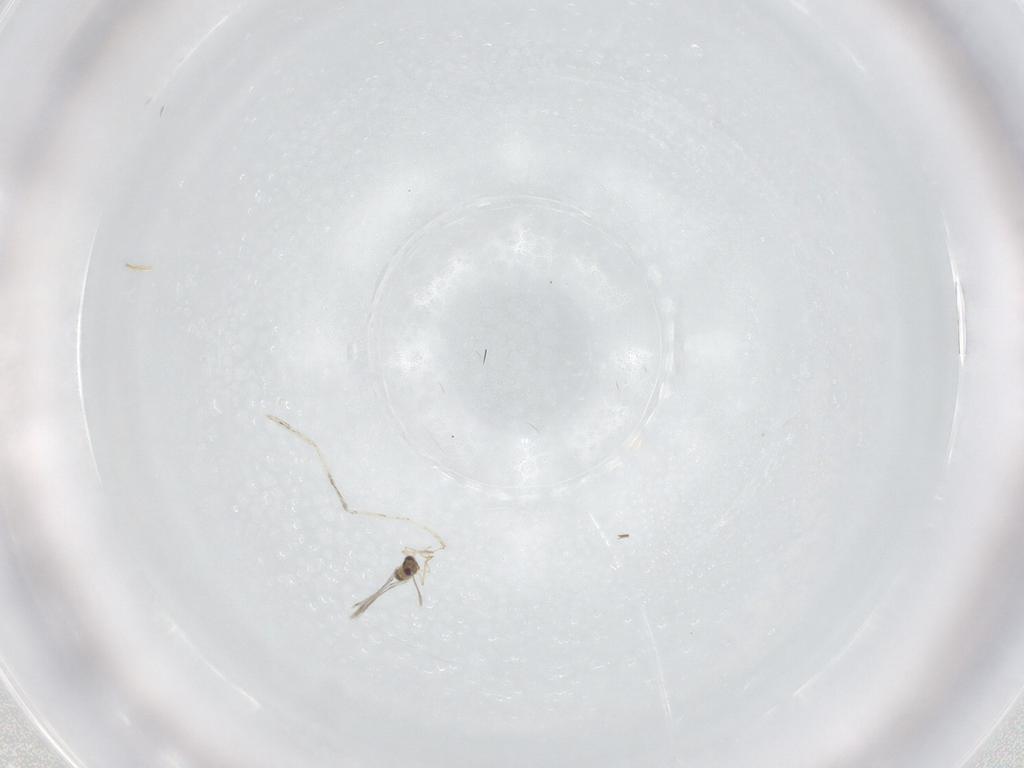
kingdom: Animalia
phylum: Arthropoda
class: Insecta
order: Hymenoptera
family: Mymaridae
